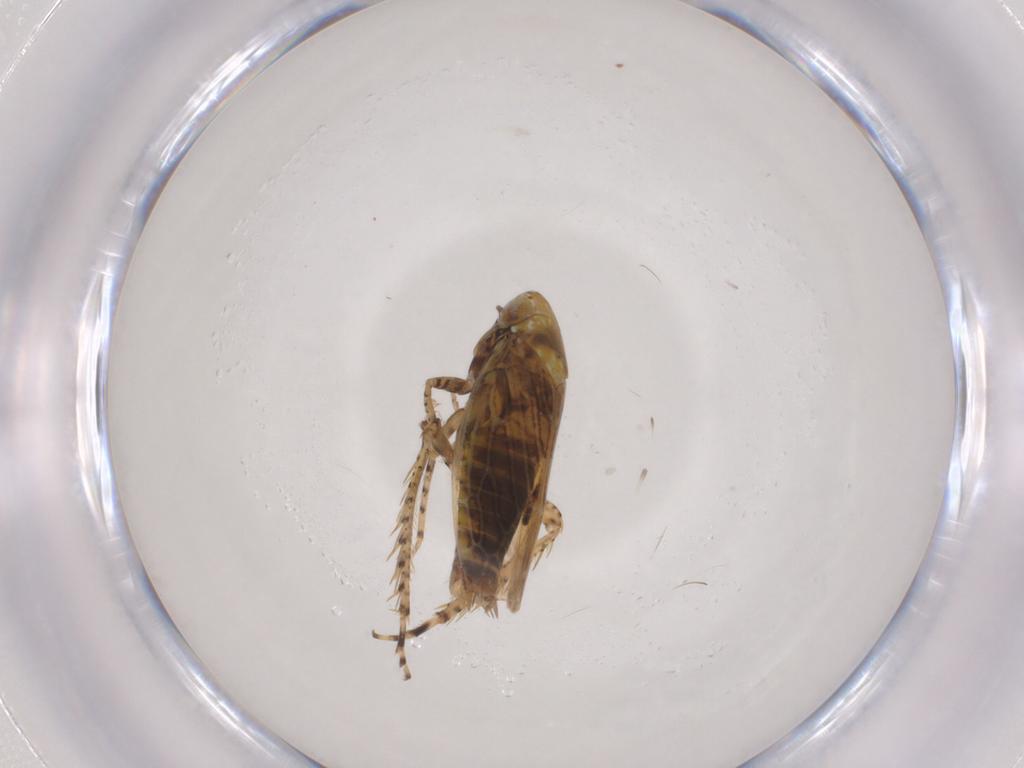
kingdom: Animalia
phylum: Arthropoda
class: Insecta
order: Hemiptera
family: Cicadellidae
